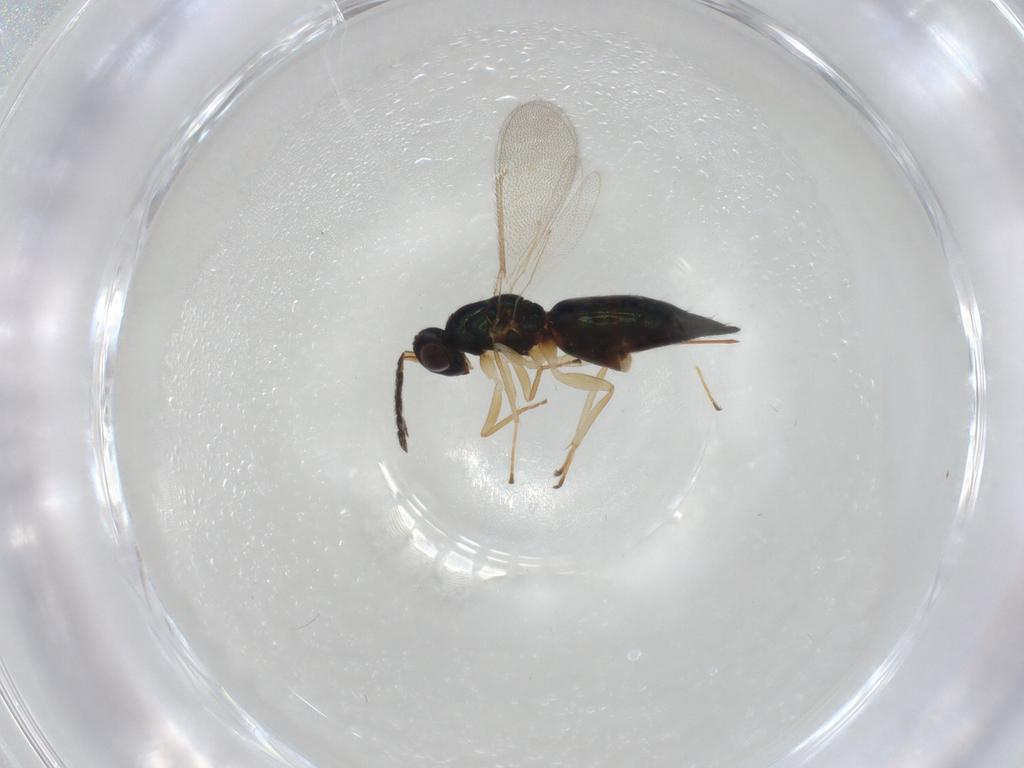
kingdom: Animalia
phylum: Arthropoda
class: Insecta
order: Hymenoptera
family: Eulophidae
